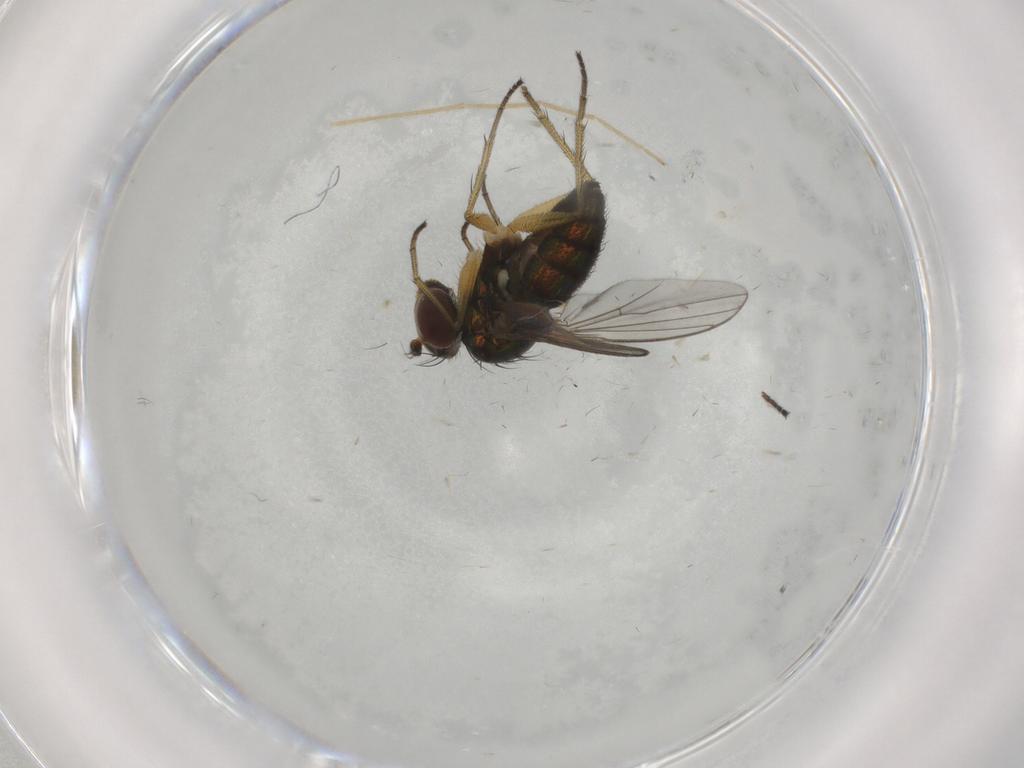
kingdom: Animalia
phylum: Arthropoda
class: Insecta
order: Diptera
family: Dolichopodidae
